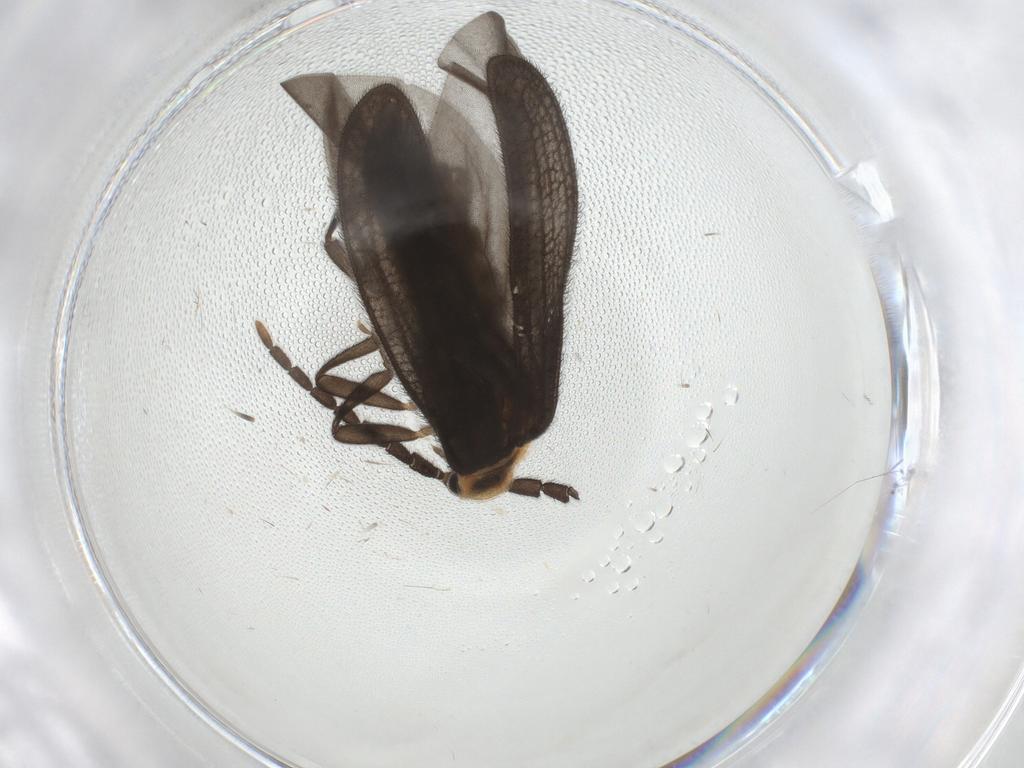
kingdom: Animalia
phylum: Arthropoda
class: Insecta
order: Coleoptera
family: Lycidae
